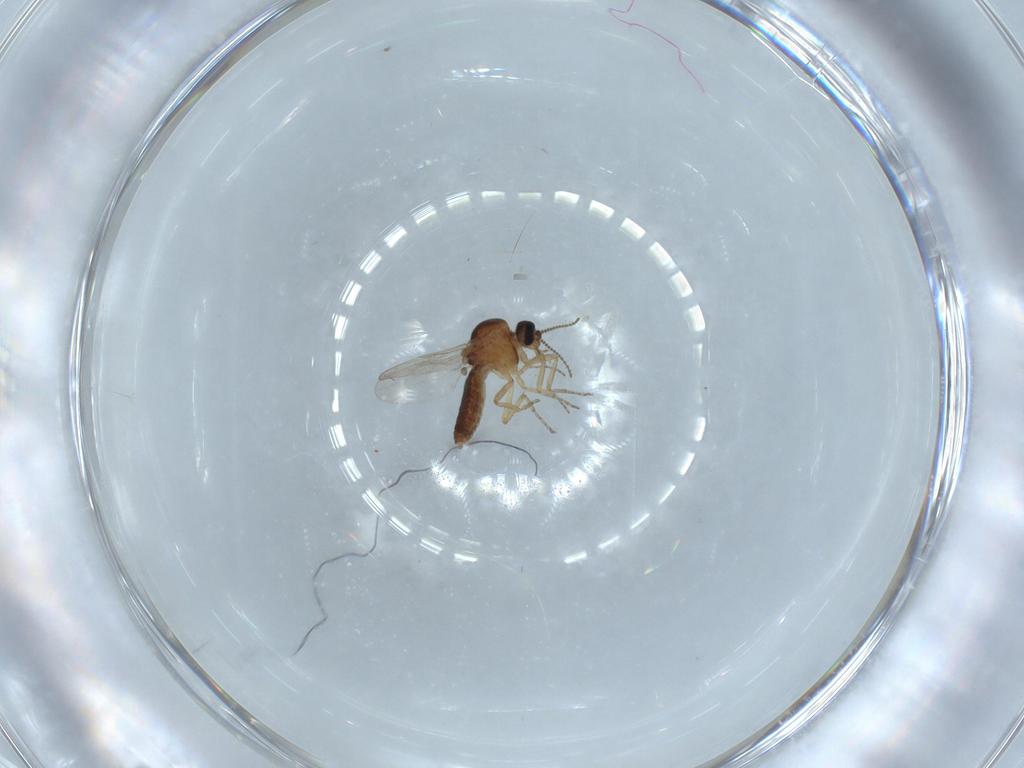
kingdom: Animalia
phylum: Arthropoda
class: Insecta
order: Diptera
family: Ceratopogonidae
